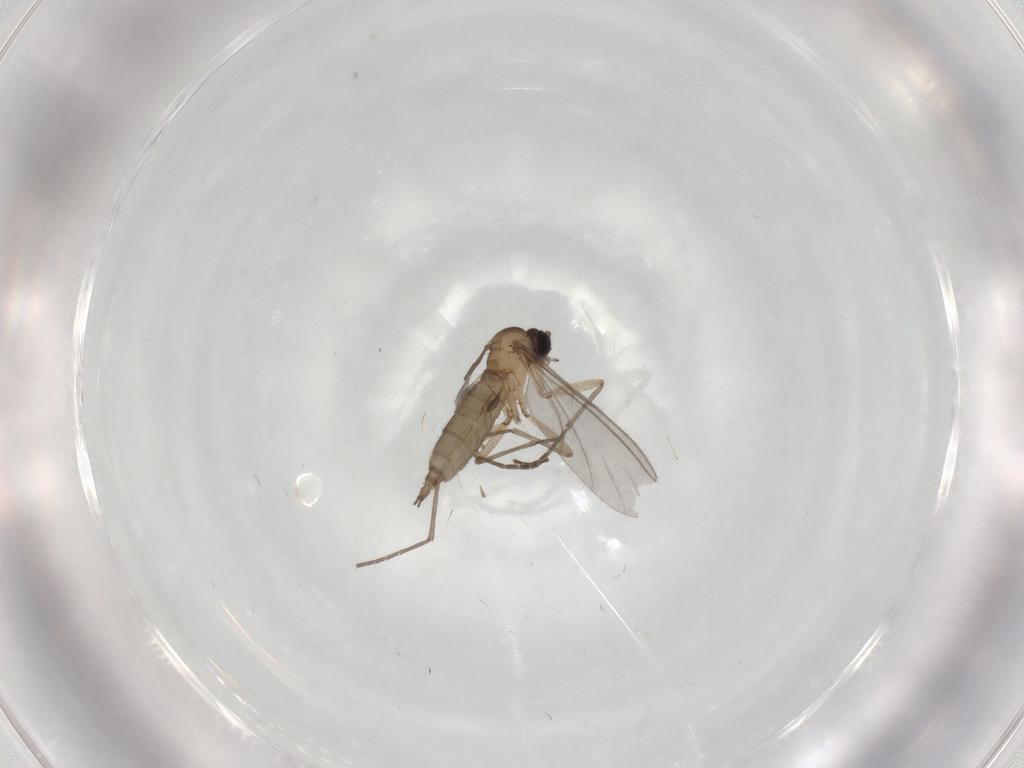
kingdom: Animalia
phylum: Arthropoda
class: Insecta
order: Diptera
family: Sciaridae
